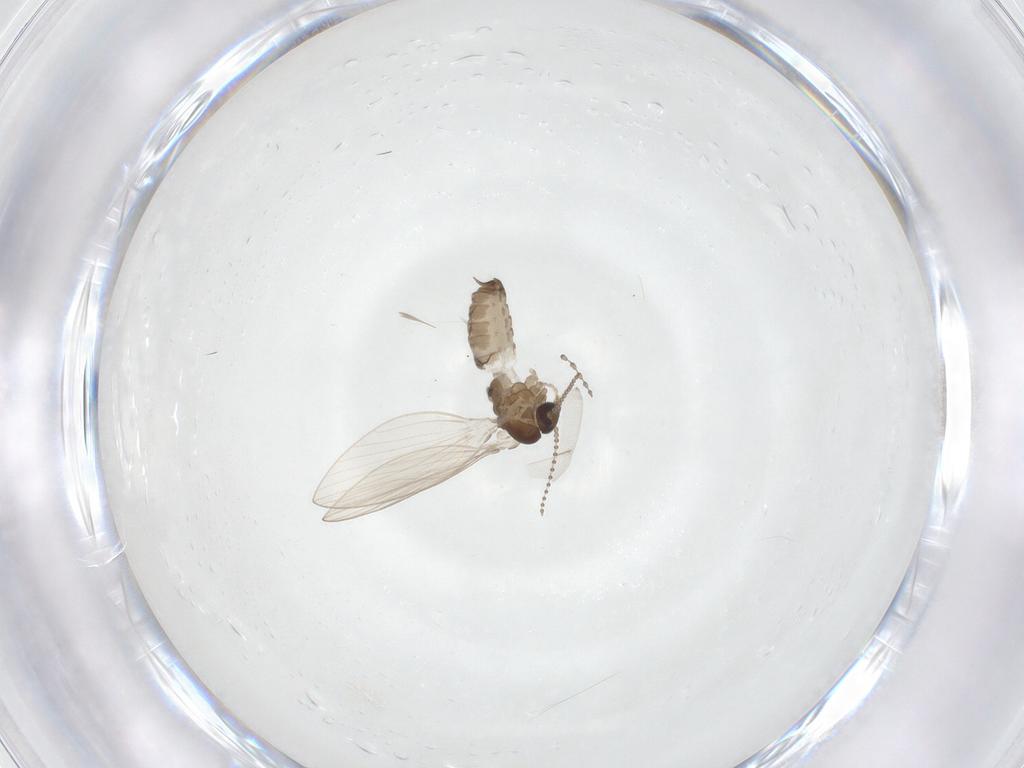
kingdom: Animalia
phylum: Arthropoda
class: Insecta
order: Diptera
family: Psychodidae
